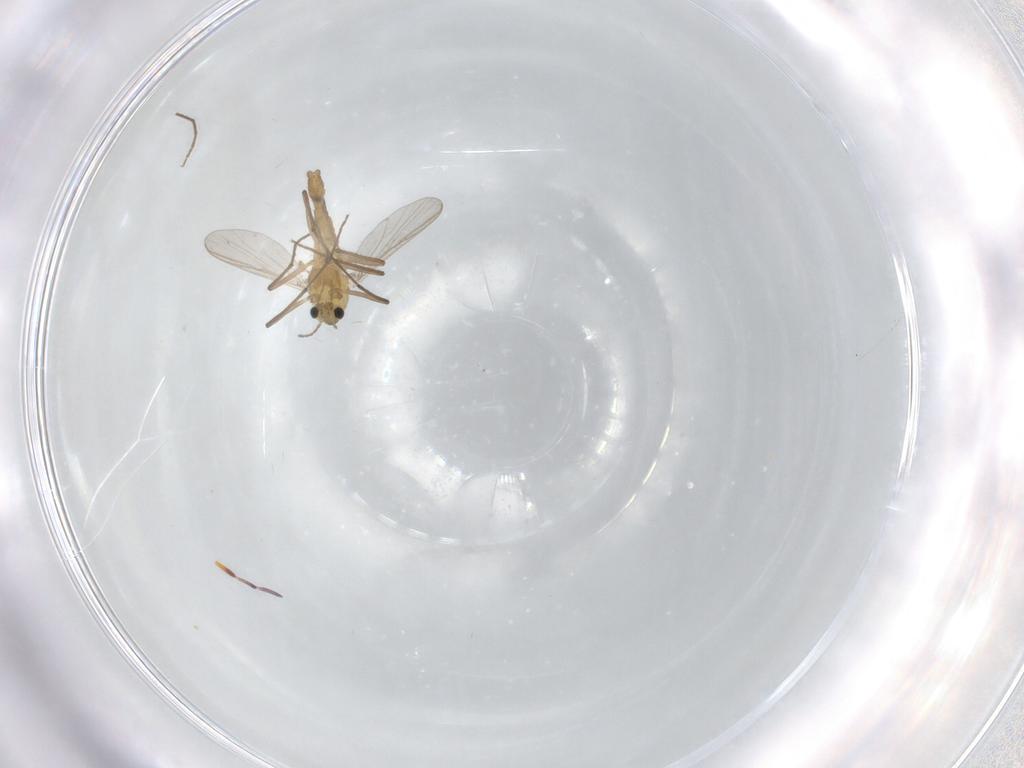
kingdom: Animalia
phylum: Arthropoda
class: Insecta
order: Diptera
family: Chironomidae
